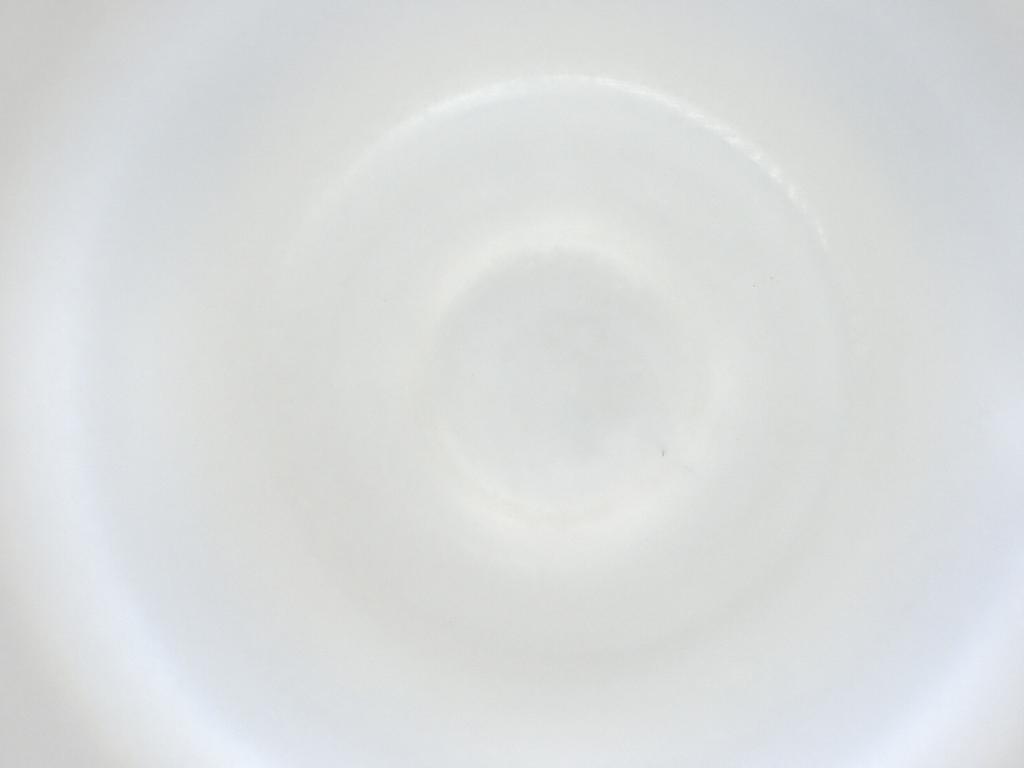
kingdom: Animalia
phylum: Arthropoda
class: Insecta
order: Diptera
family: Cecidomyiidae
